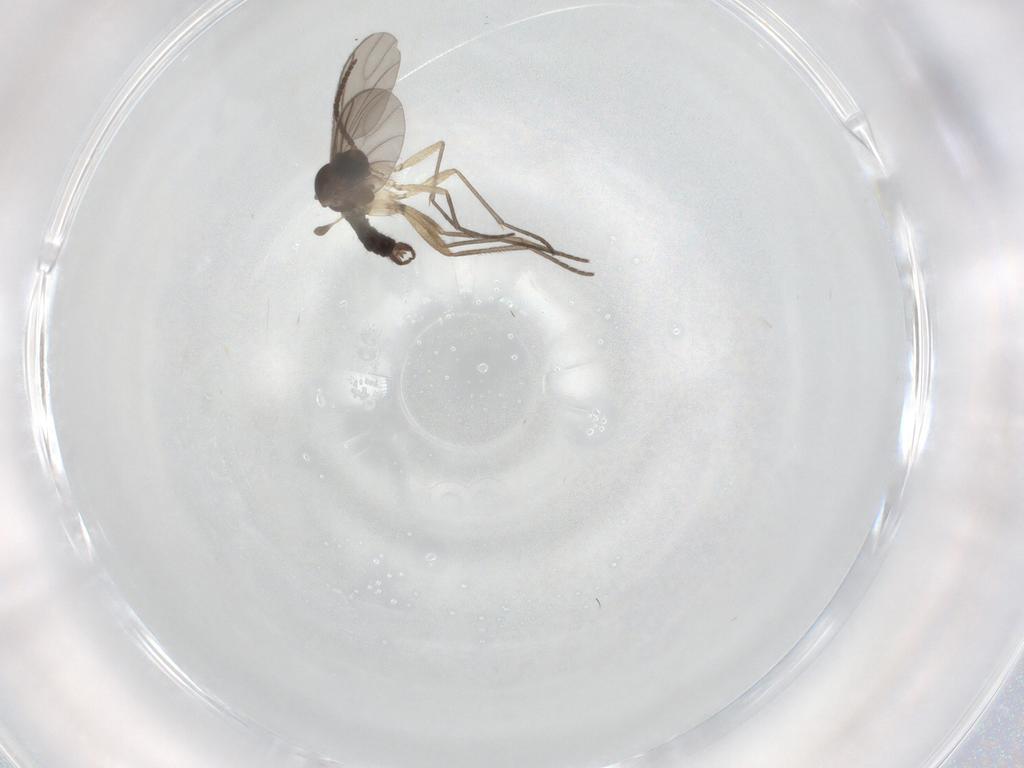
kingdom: Animalia
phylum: Arthropoda
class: Insecta
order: Diptera
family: Sciaridae
